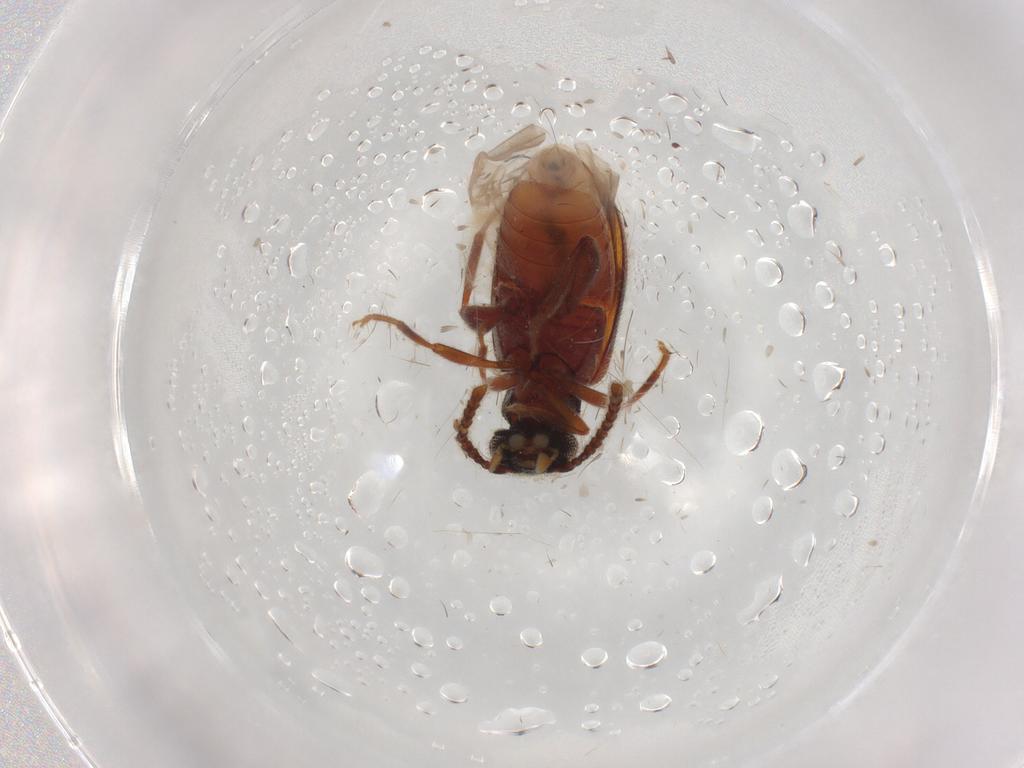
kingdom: Animalia
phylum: Arthropoda
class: Insecta
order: Coleoptera
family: Aderidae
